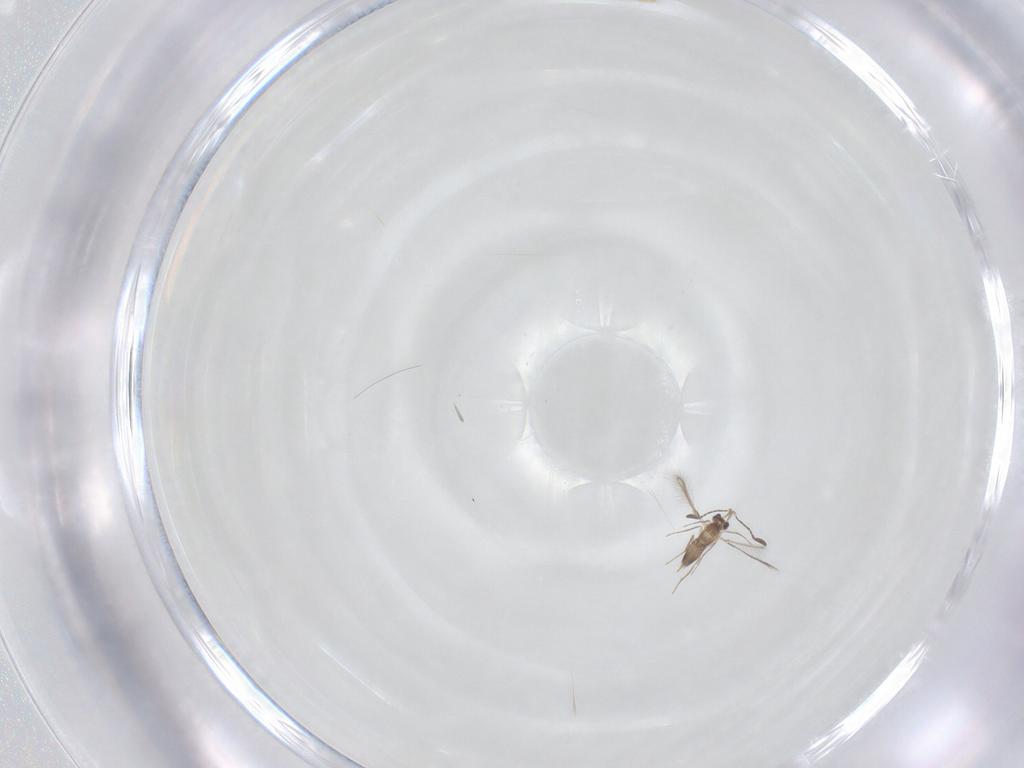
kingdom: Animalia
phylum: Arthropoda
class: Insecta
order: Hymenoptera
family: Mymaridae
